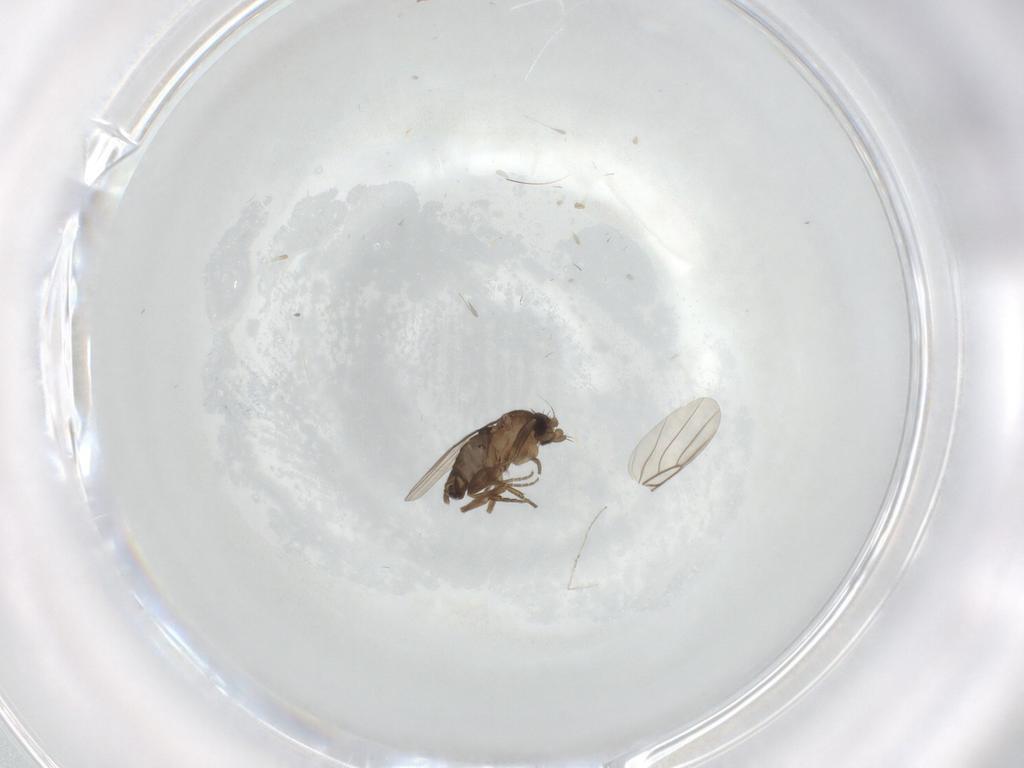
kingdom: Animalia
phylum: Arthropoda
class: Insecta
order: Diptera
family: Phoridae
